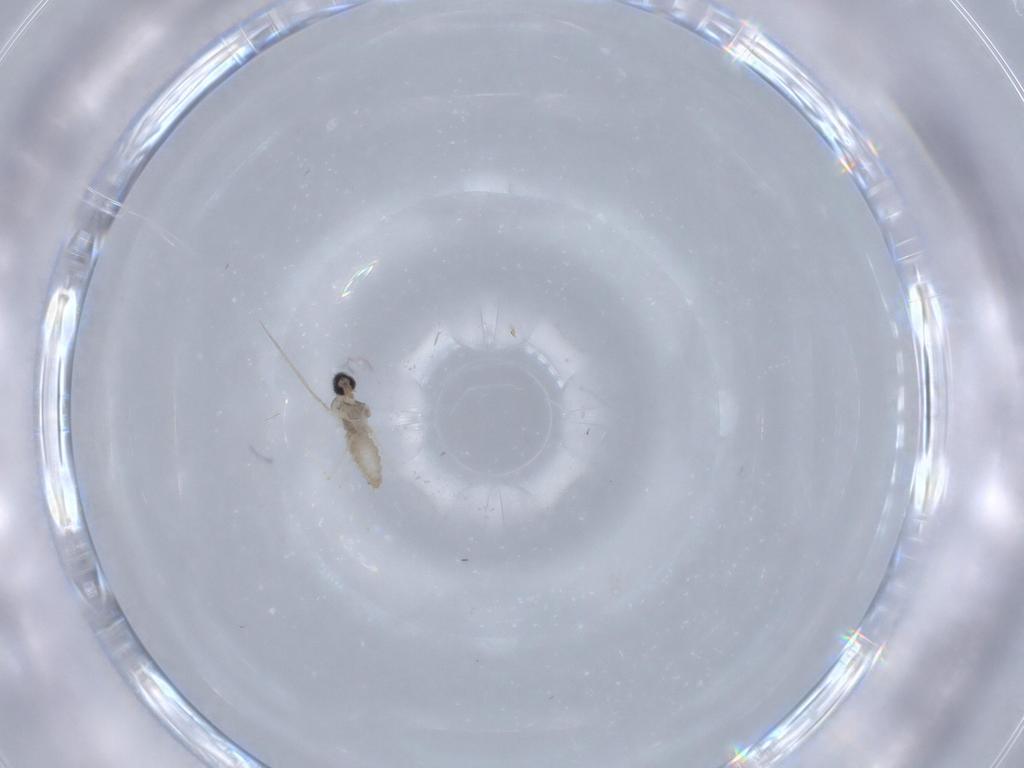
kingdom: Animalia
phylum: Arthropoda
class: Insecta
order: Diptera
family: Cecidomyiidae
